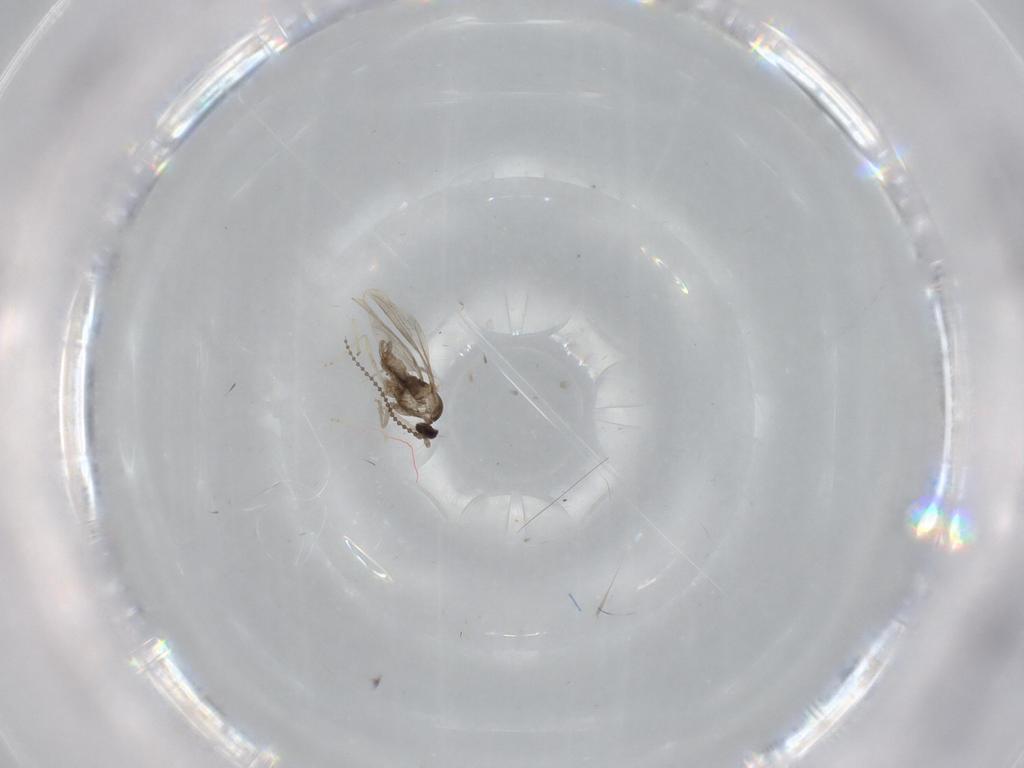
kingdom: Animalia
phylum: Arthropoda
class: Insecta
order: Diptera
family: Cecidomyiidae
